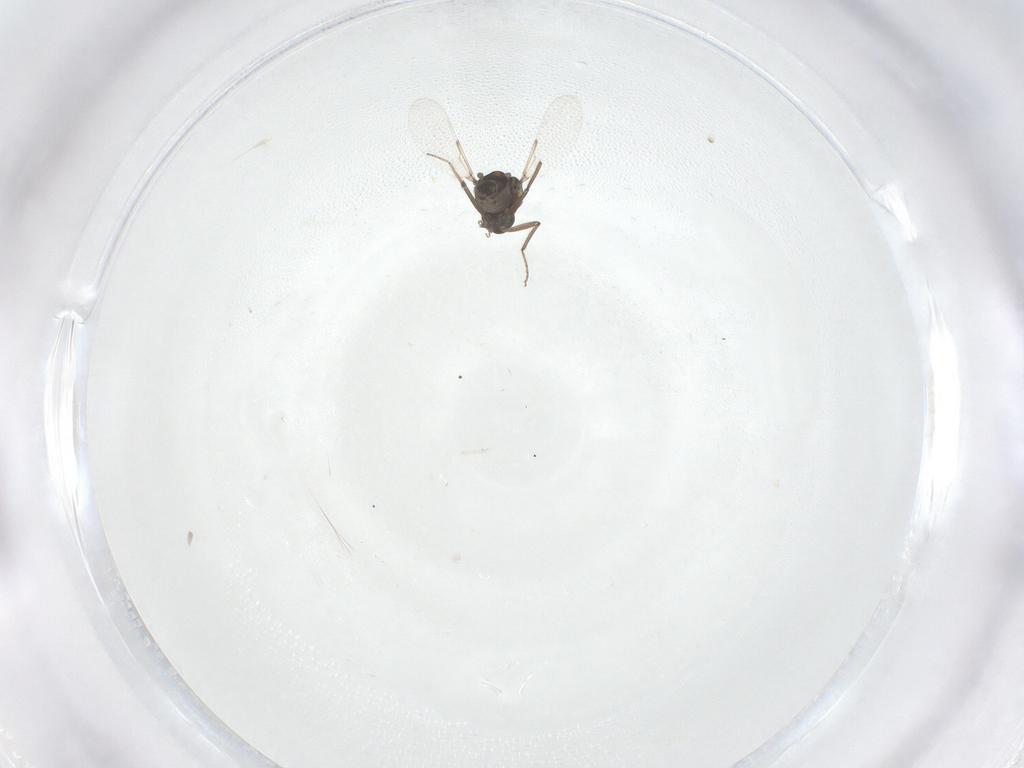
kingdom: Animalia
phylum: Arthropoda
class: Insecta
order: Diptera
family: Ceratopogonidae
